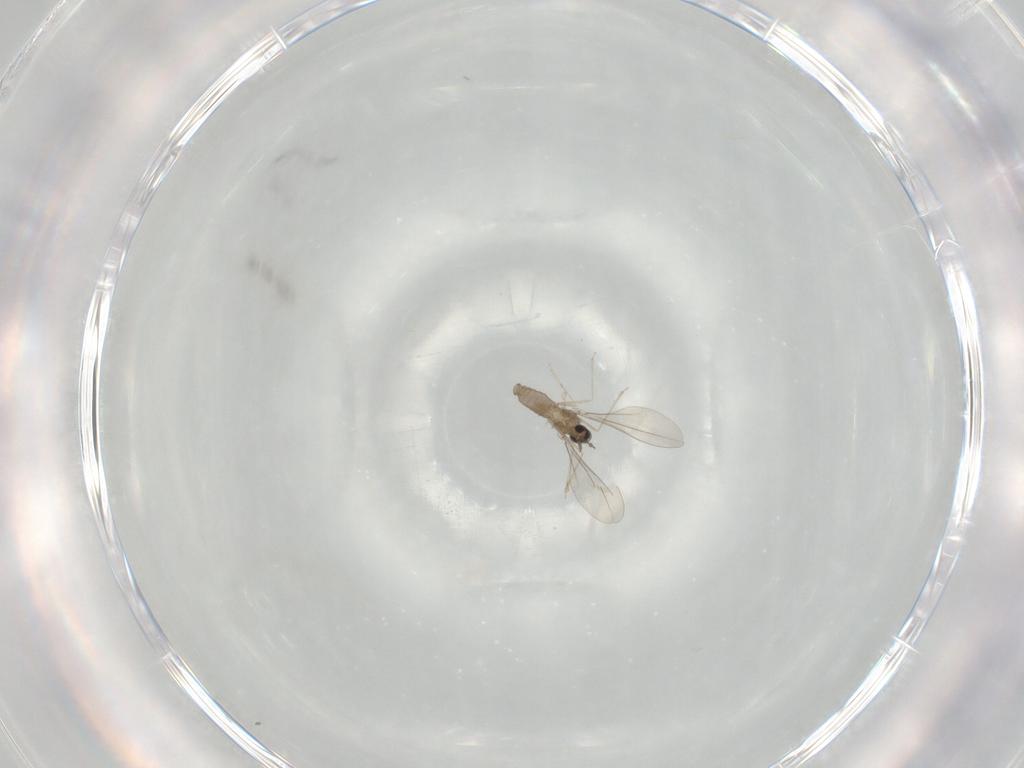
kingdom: Animalia
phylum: Arthropoda
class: Insecta
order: Diptera
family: Cecidomyiidae
